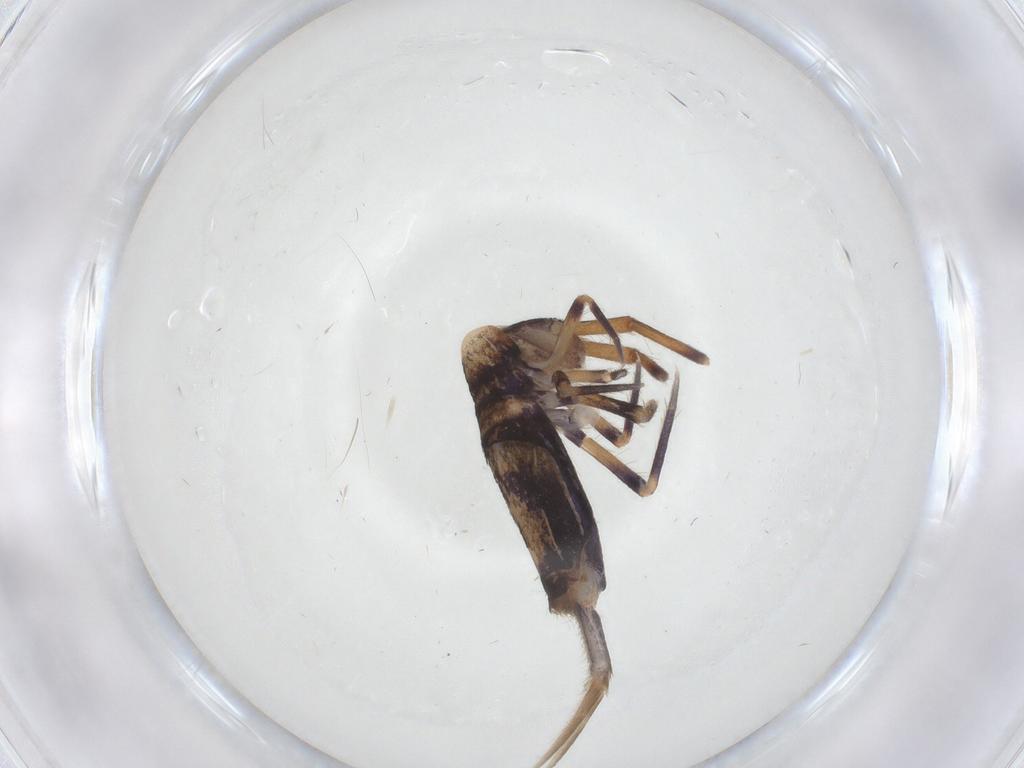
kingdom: Animalia
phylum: Arthropoda
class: Collembola
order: Entomobryomorpha
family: Entomobryidae
